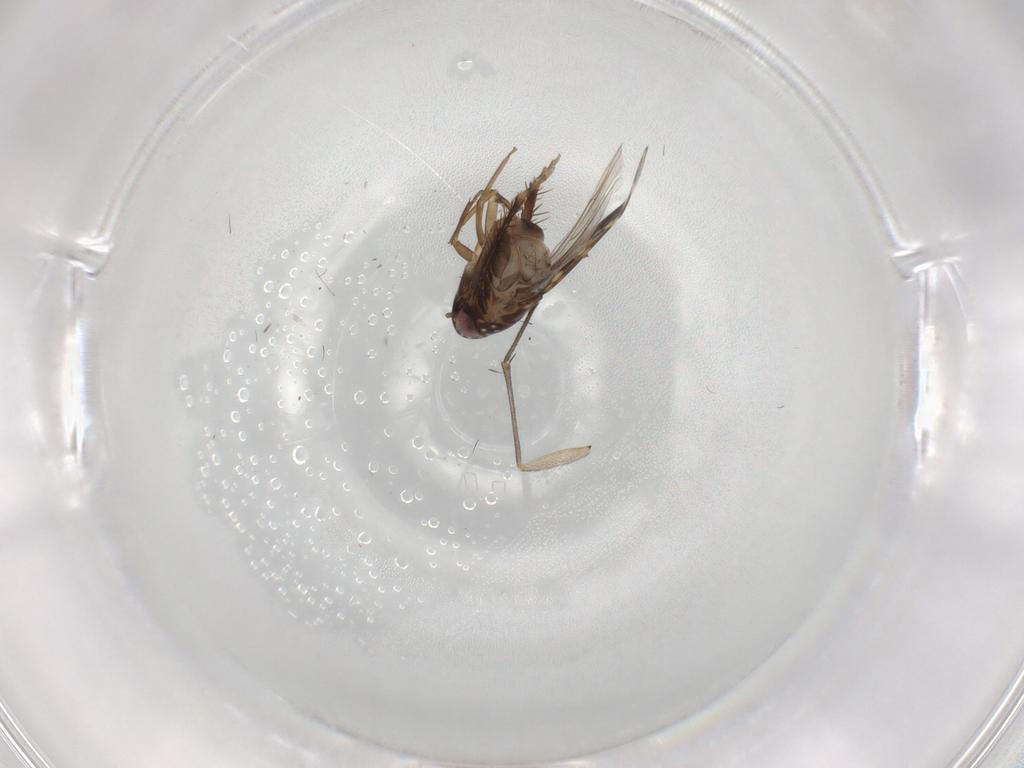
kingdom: Animalia
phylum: Arthropoda
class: Insecta
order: Hemiptera
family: Cicadellidae
